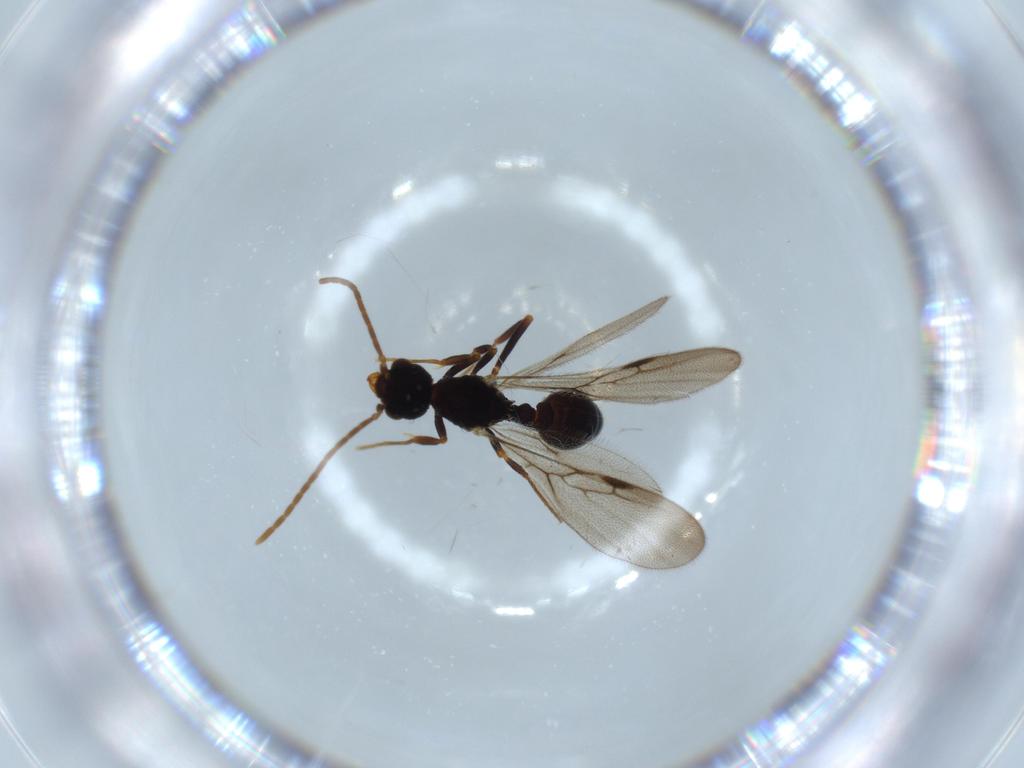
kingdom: Animalia
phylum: Arthropoda
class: Insecta
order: Hymenoptera
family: Formicidae
